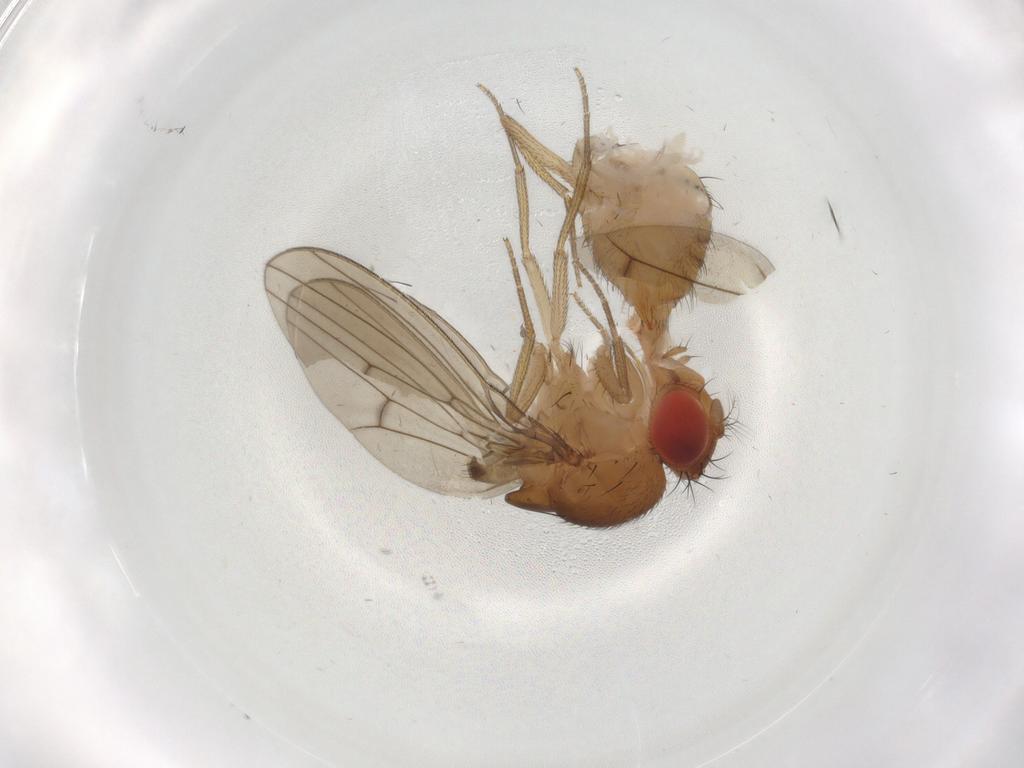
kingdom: Animalia
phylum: Arthropoda
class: Insecta
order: Diptera
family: Drosophilidae
